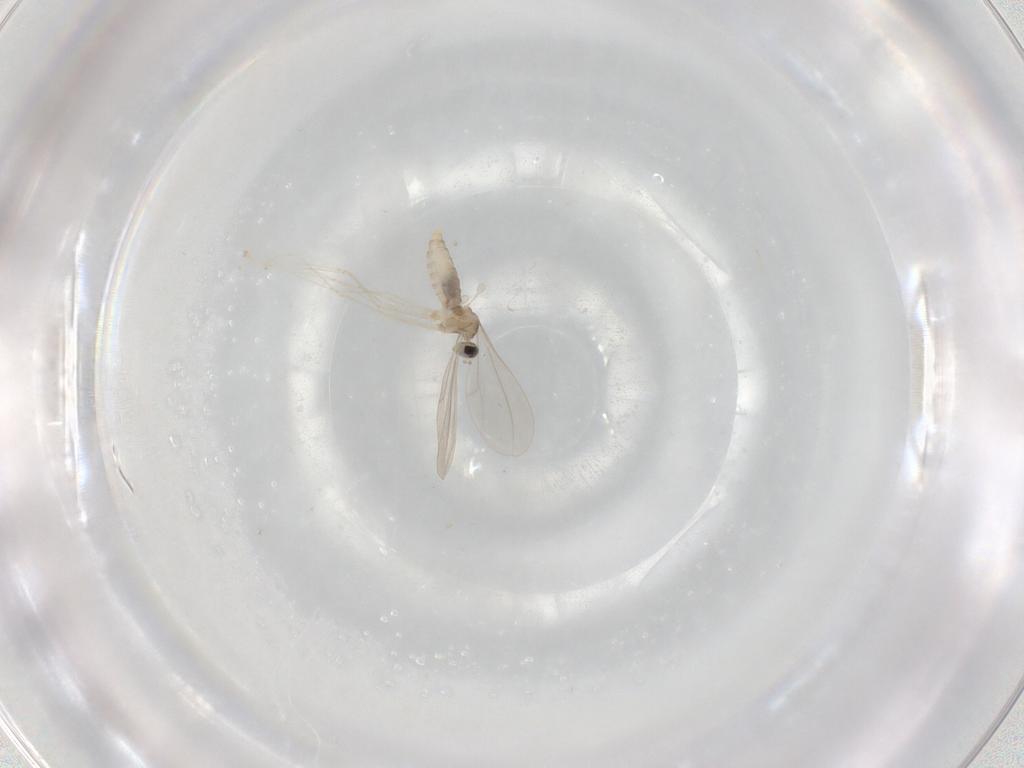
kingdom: Animalia
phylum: Arthropoda
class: Insecta
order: Diptera
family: Cecidomyiidae
